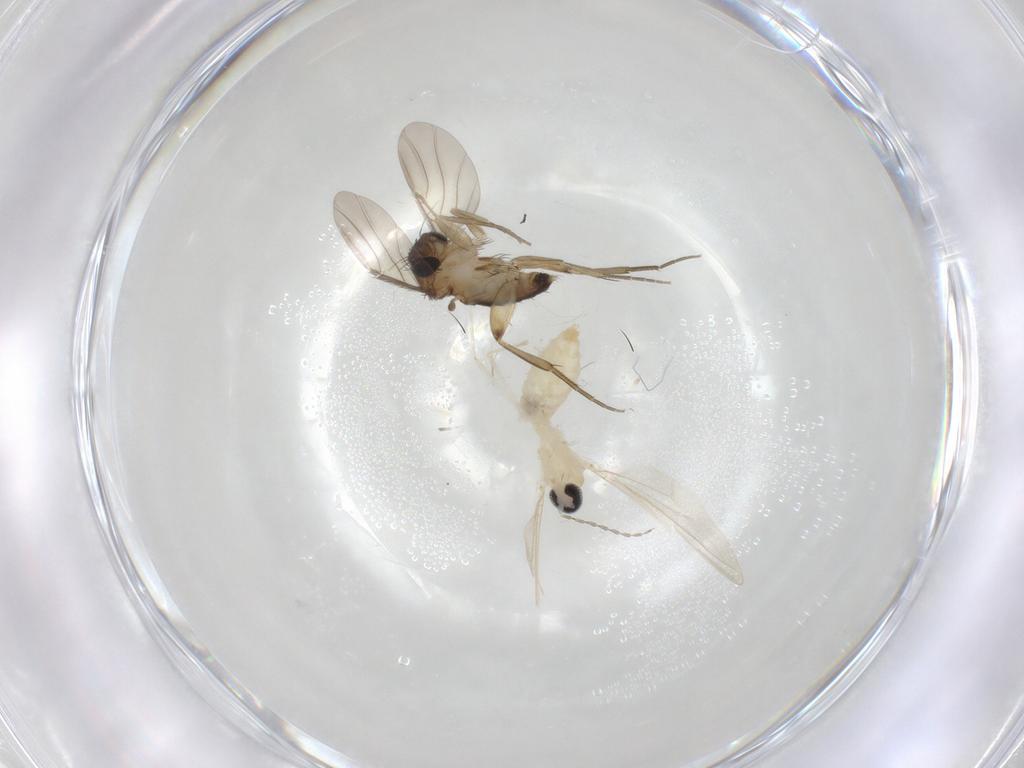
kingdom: Animalia
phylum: Arthropoda
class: Insecta
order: Diptera
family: Cecidomyiidae
